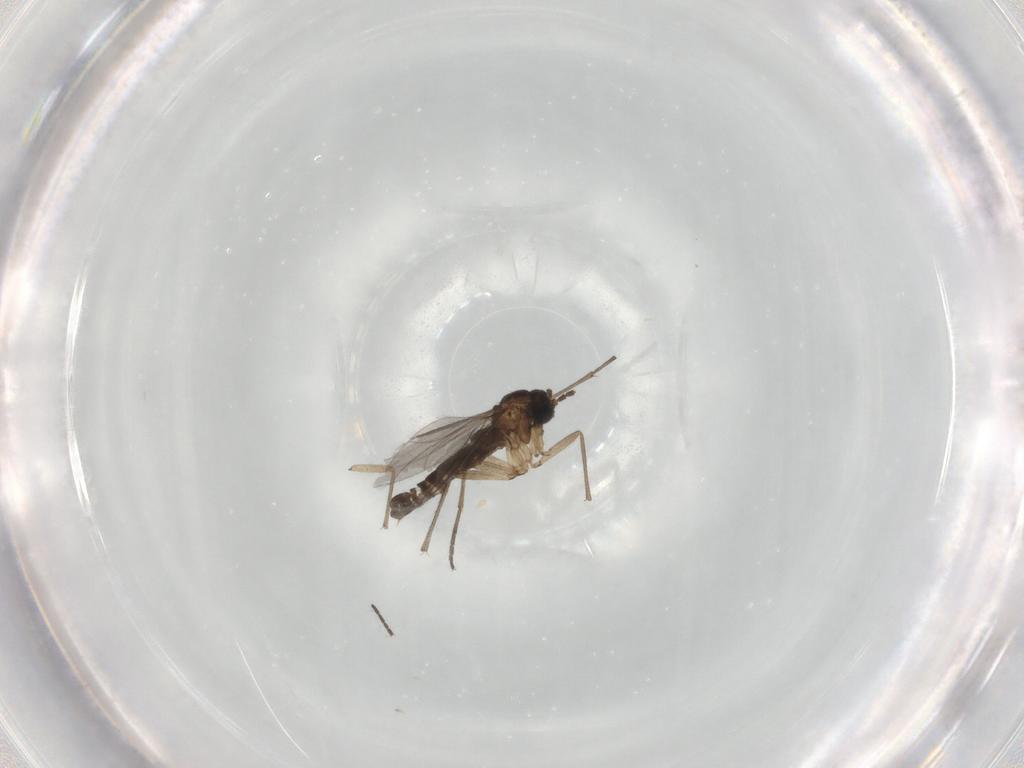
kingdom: Animalia
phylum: Arthropoda
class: Insecta
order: Diptera
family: Sciaridae
